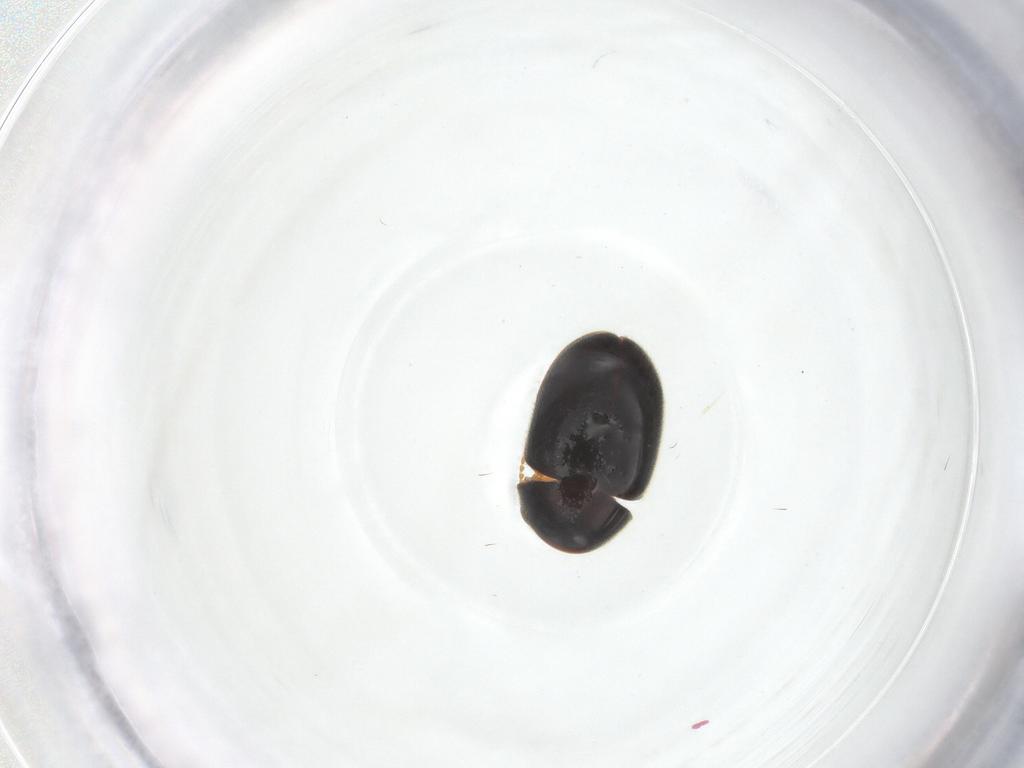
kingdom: Animalia
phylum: Arthropoda
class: Insecta
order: Coleoptera
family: Ptinidae
